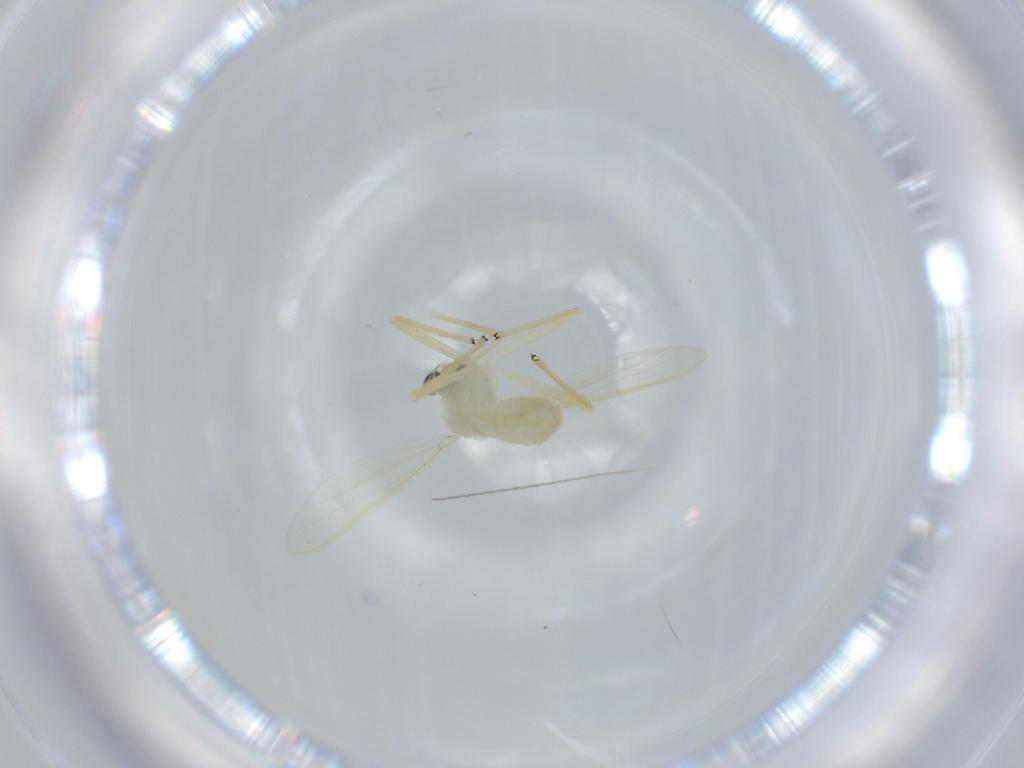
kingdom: Animalia
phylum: Arthropoda
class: Insecta
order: Diptera
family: Chironomidae
